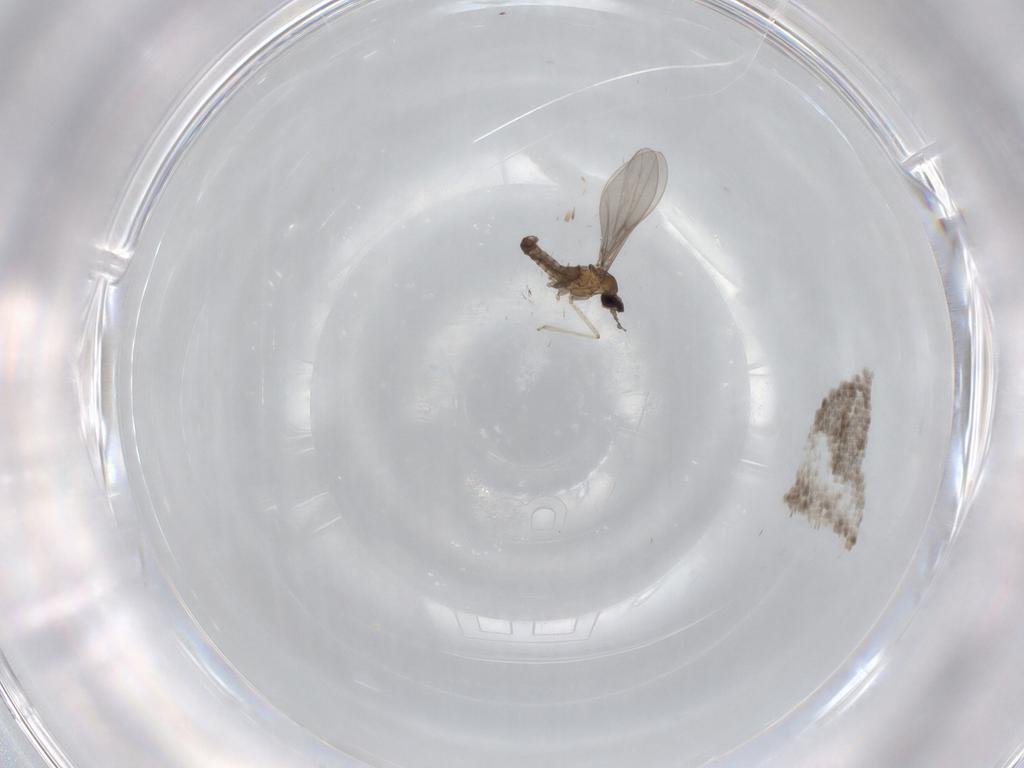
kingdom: Animalia
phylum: Arthropoda
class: Insecta
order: Diptera
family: Cecidomyiidae
